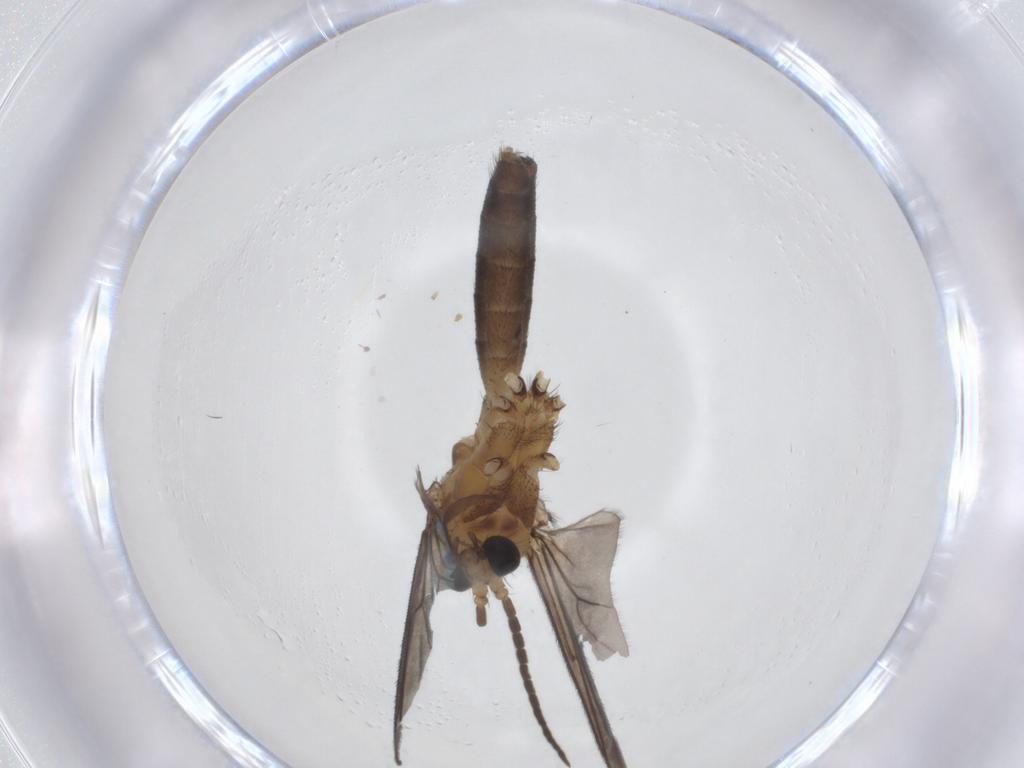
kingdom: Animalia
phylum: Arthropoda
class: Insecta
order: Diptera
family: Mycetophilidae
